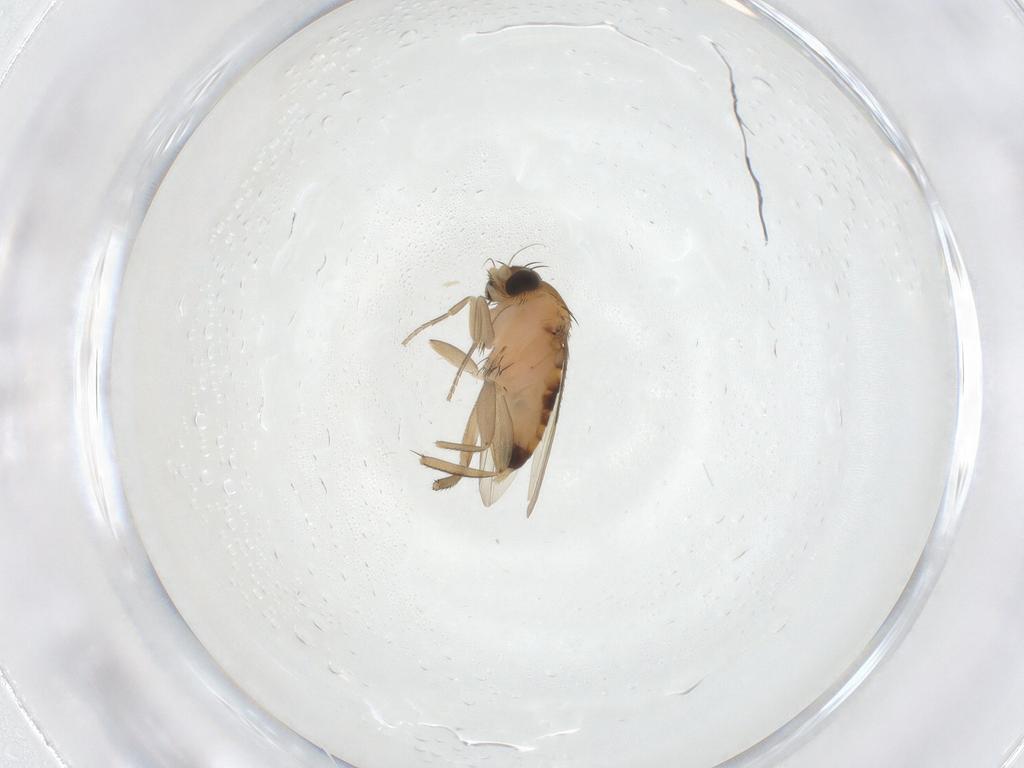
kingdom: Animalia
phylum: Arthropoda
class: Insecta
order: Diptera
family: Phoridae
